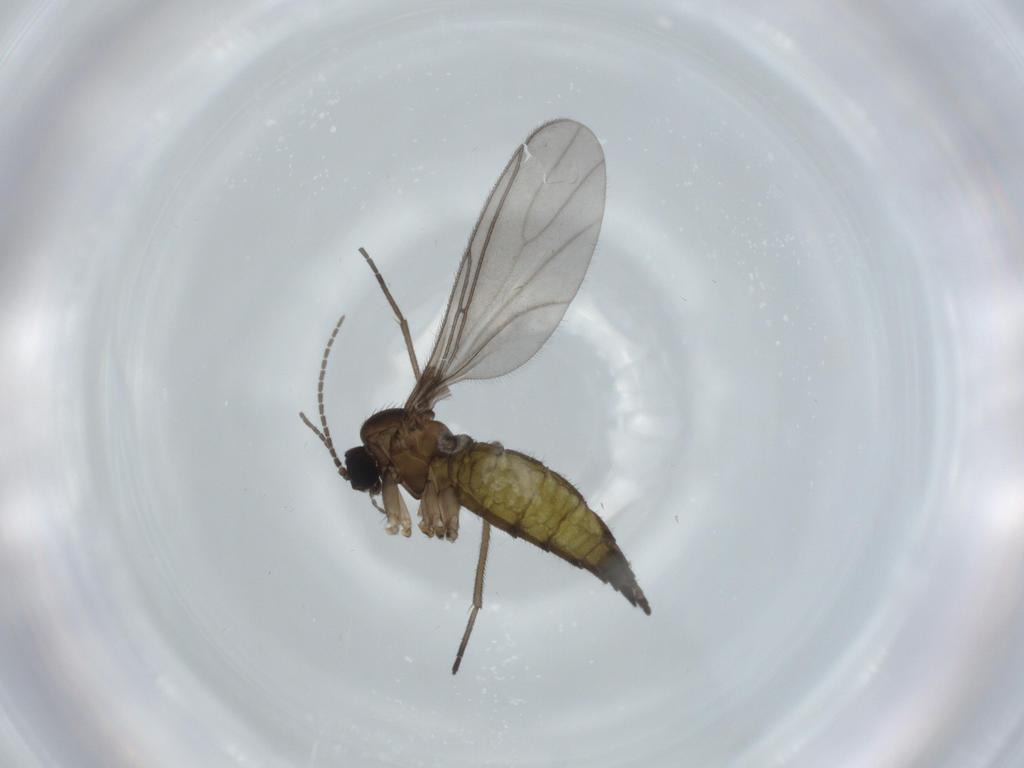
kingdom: Animalia
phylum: Arthropoda
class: Insecta
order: Diptera
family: Sciaridae
